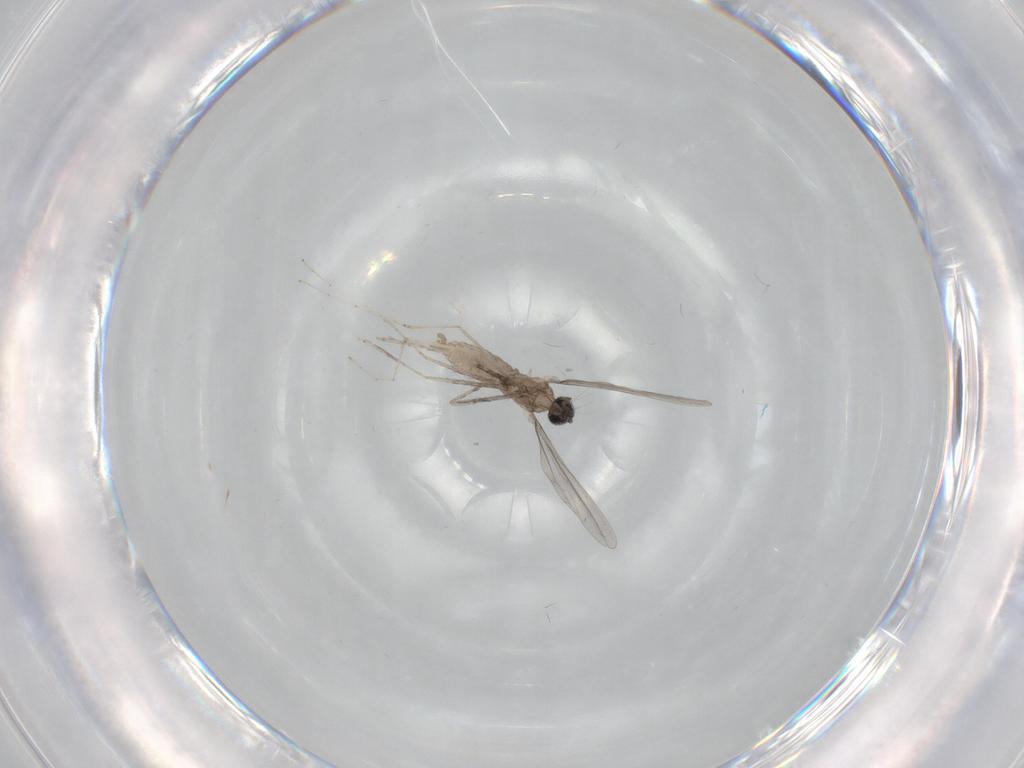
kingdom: Animalia
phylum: Arthropoda
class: Insecta
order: Diptera
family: Cecidomyiidae
